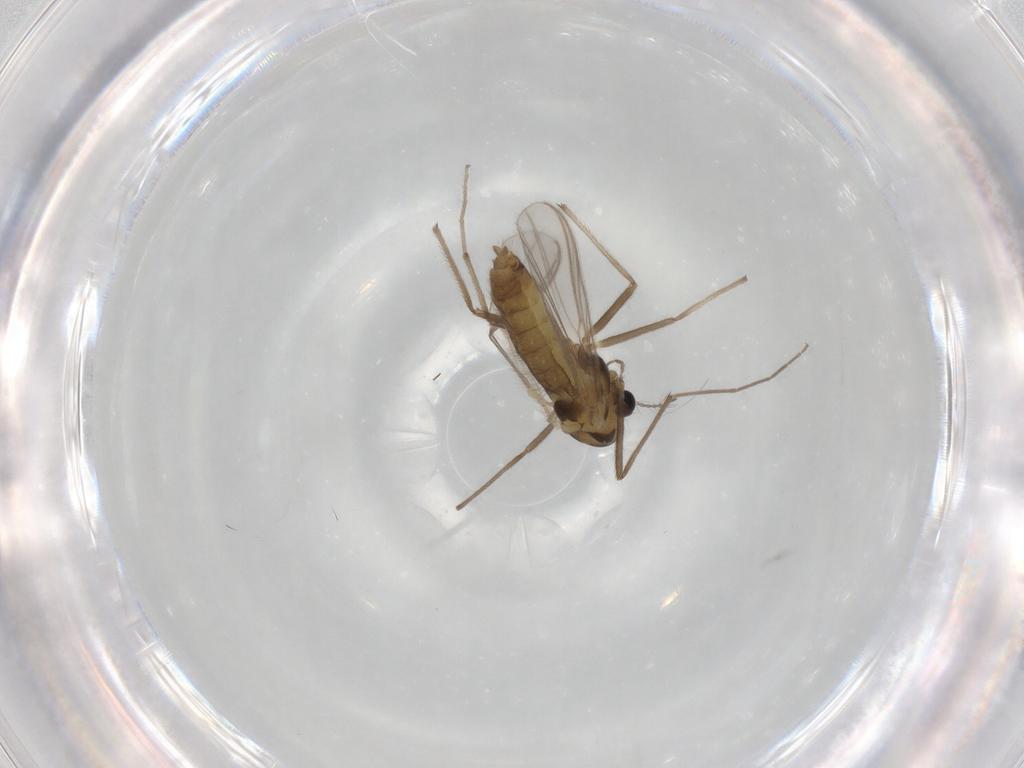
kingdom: Animalia
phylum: Arthropoda
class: Insecta
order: Diptera
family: Chironomidae
